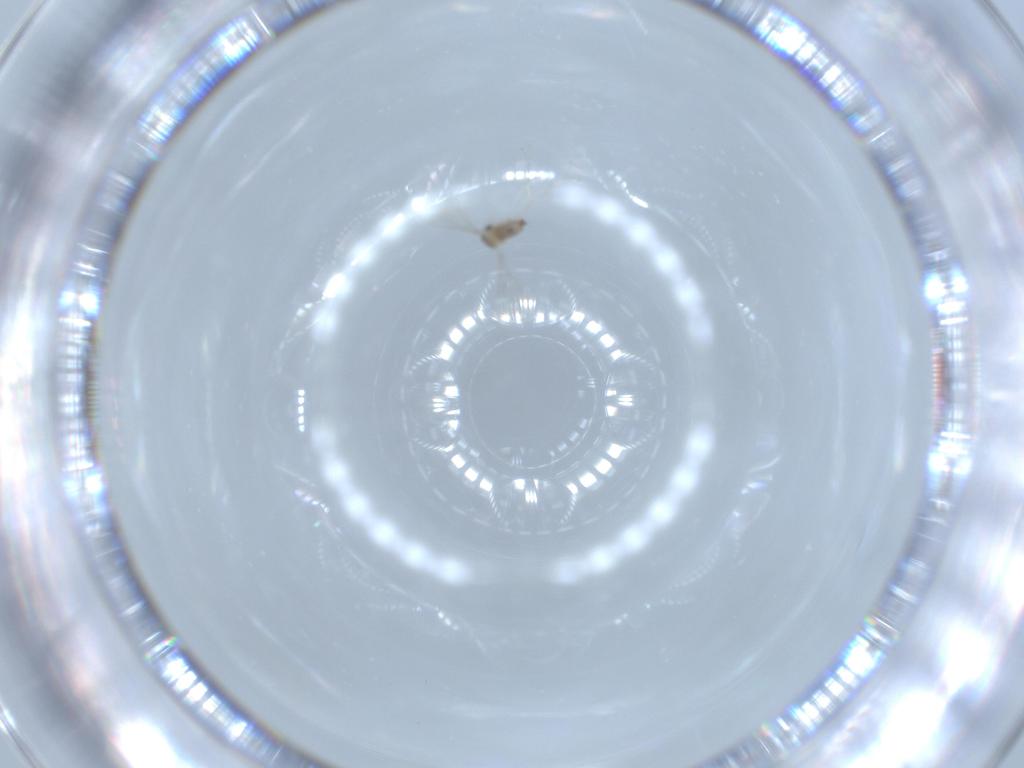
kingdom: Animalia
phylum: Arthropoda
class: Insecta
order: Diptera
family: Cecidomyiidae
